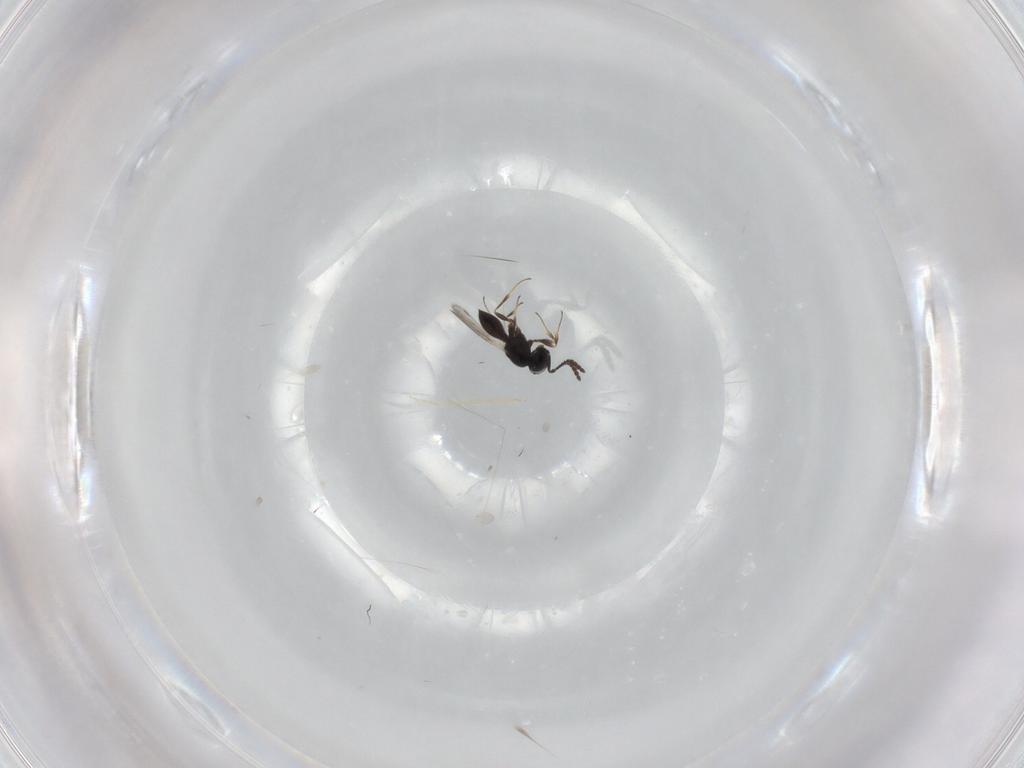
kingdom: Animalia
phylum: Arthropoda
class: Insecta
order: Hymenoptera
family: Scelionidae
